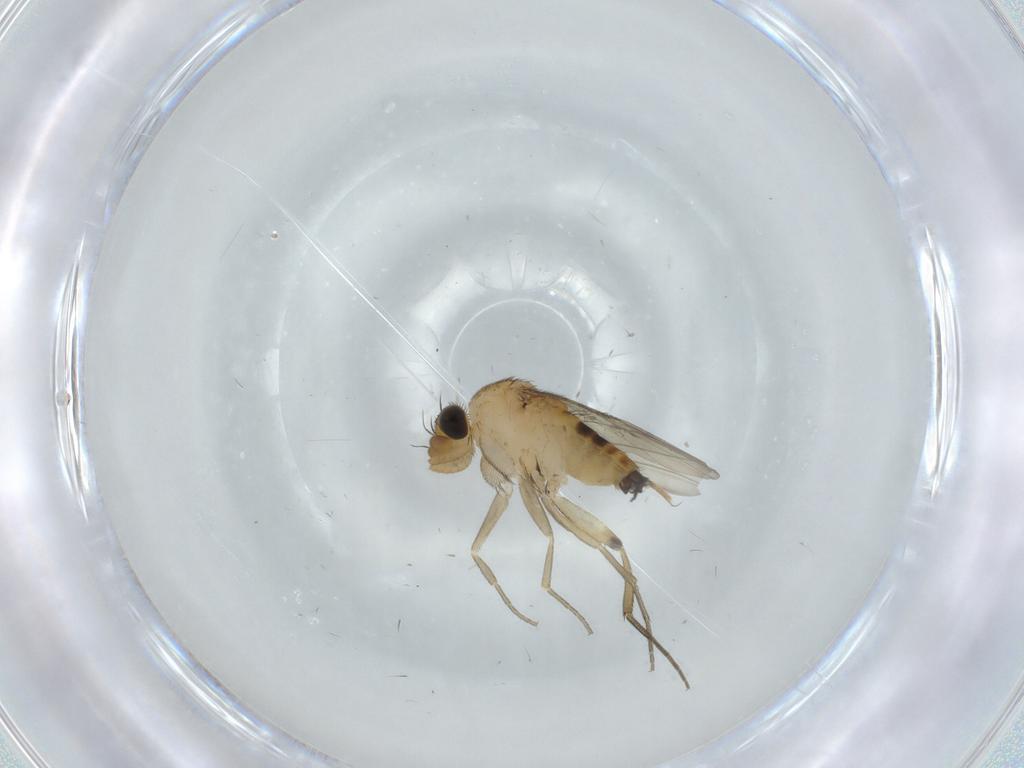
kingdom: Animalia
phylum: Arthropoda
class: Insecta
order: Diptera
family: Phoridae
